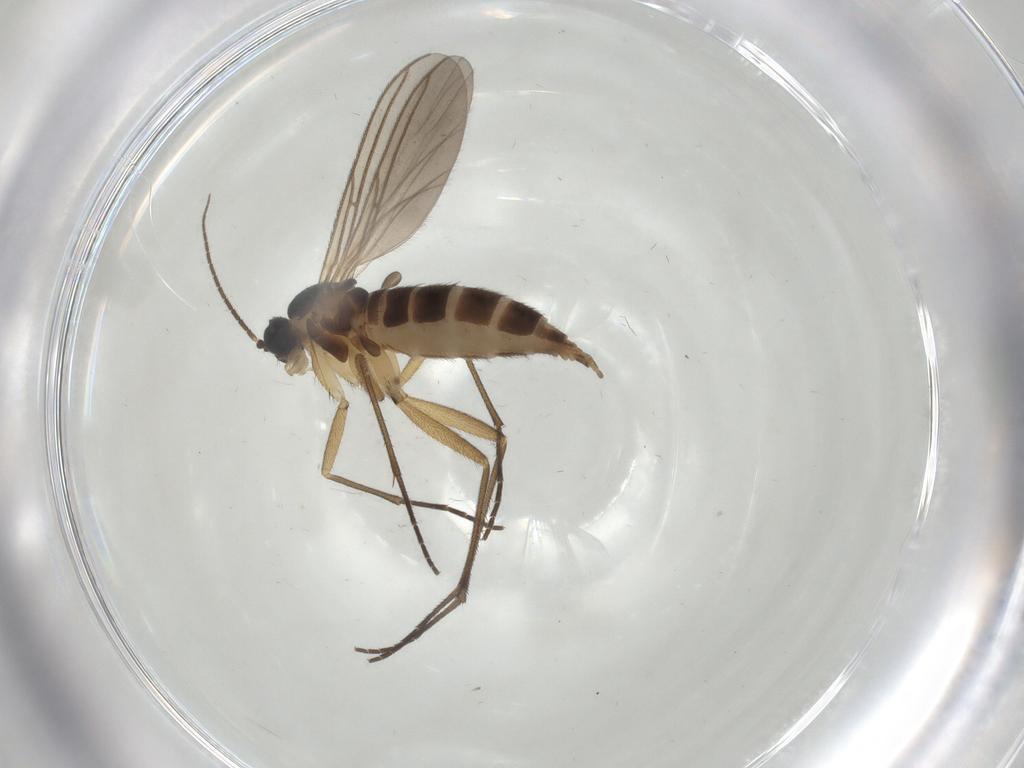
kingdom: Animalia
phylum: Arthropoda
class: Insecta
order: Diptera
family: Sciaridae
